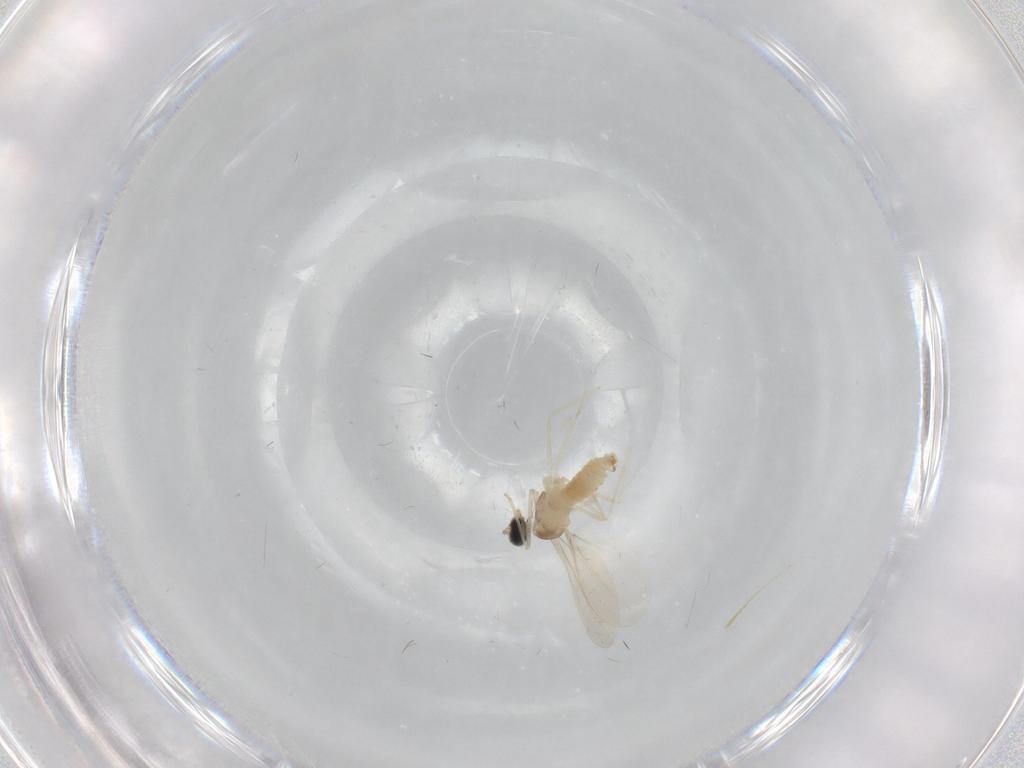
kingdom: Animalia
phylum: Arthropoda
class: Insecta
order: Diptera
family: Cecidomyiidae
